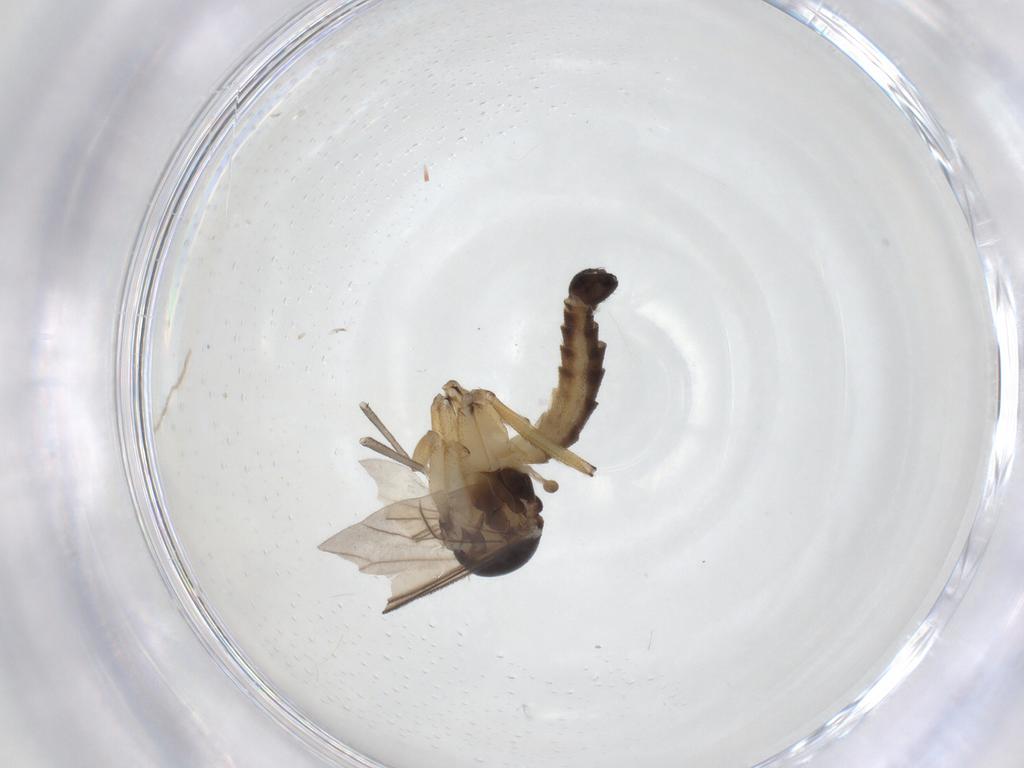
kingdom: Animalia
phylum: Arthropoda
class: Insecta
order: Diptera
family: Mycetophilidae
